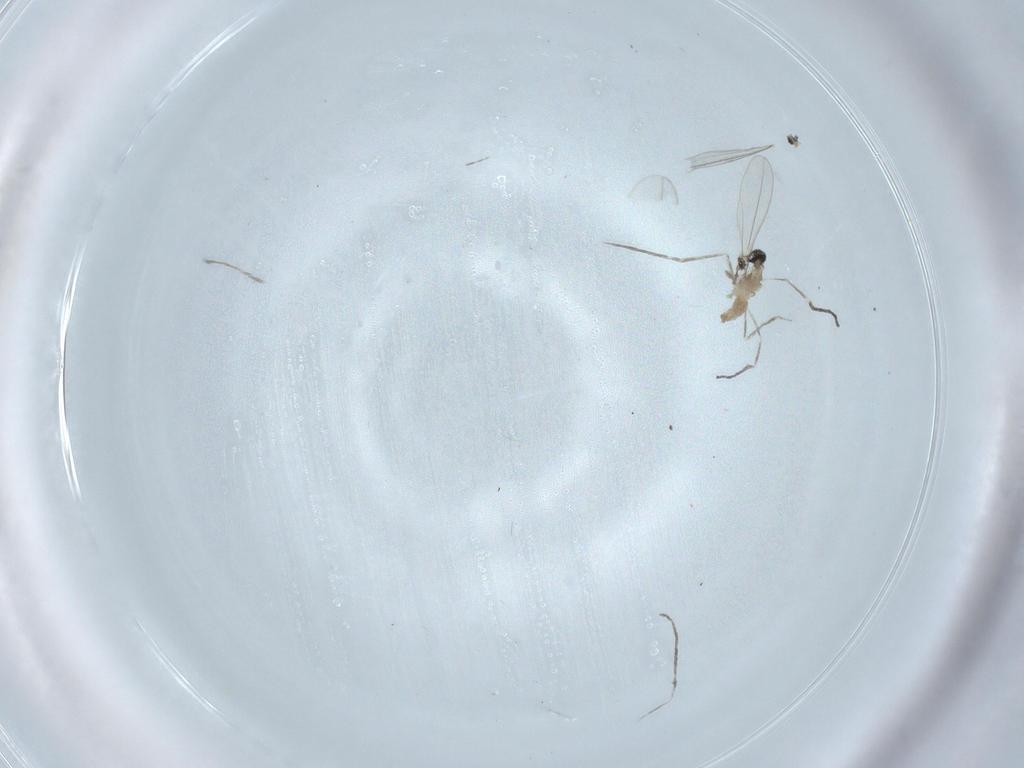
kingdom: Animalia
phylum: Arthropoda
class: Insecta
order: Diptera
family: Cecidomyiidae
